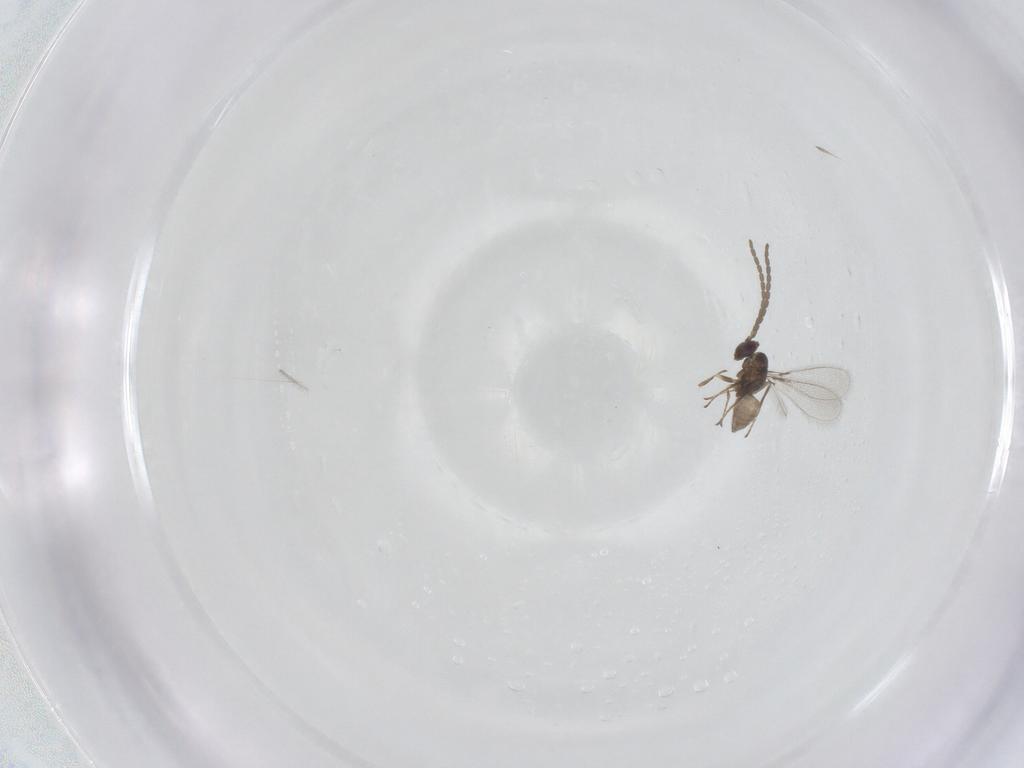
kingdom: Animalia
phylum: Arthropoda
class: Insecta
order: Hymenoptera
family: Mymaridae
